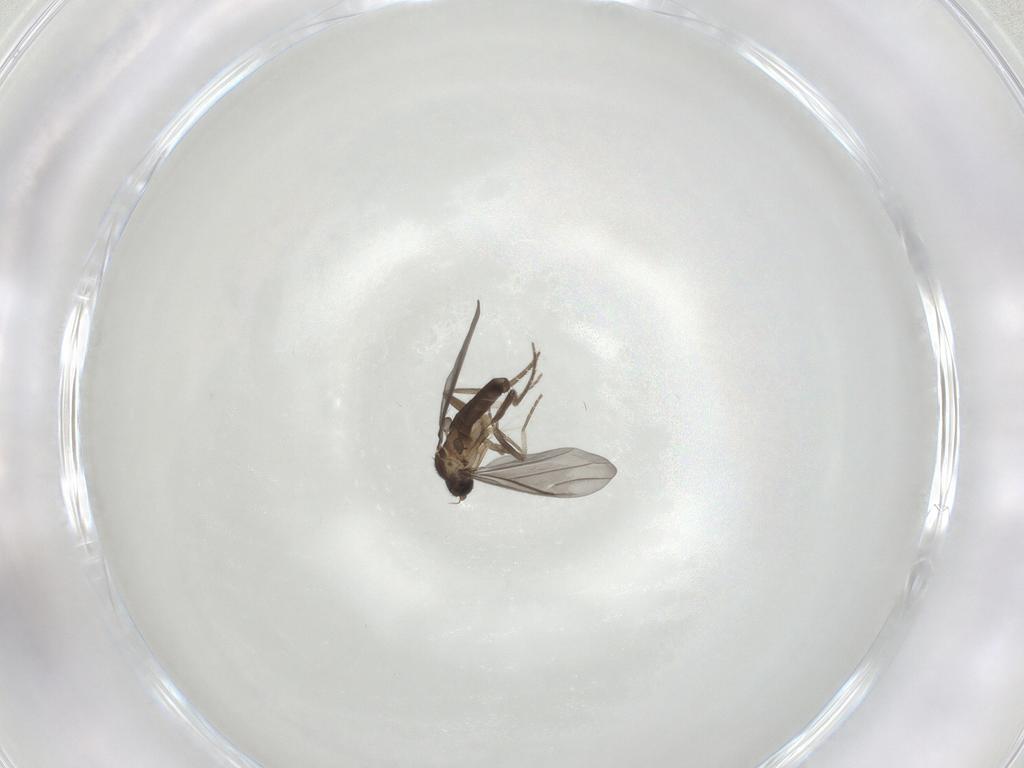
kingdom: Animalia
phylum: Arthropoda
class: Insecta
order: Diptera
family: Phoridae
